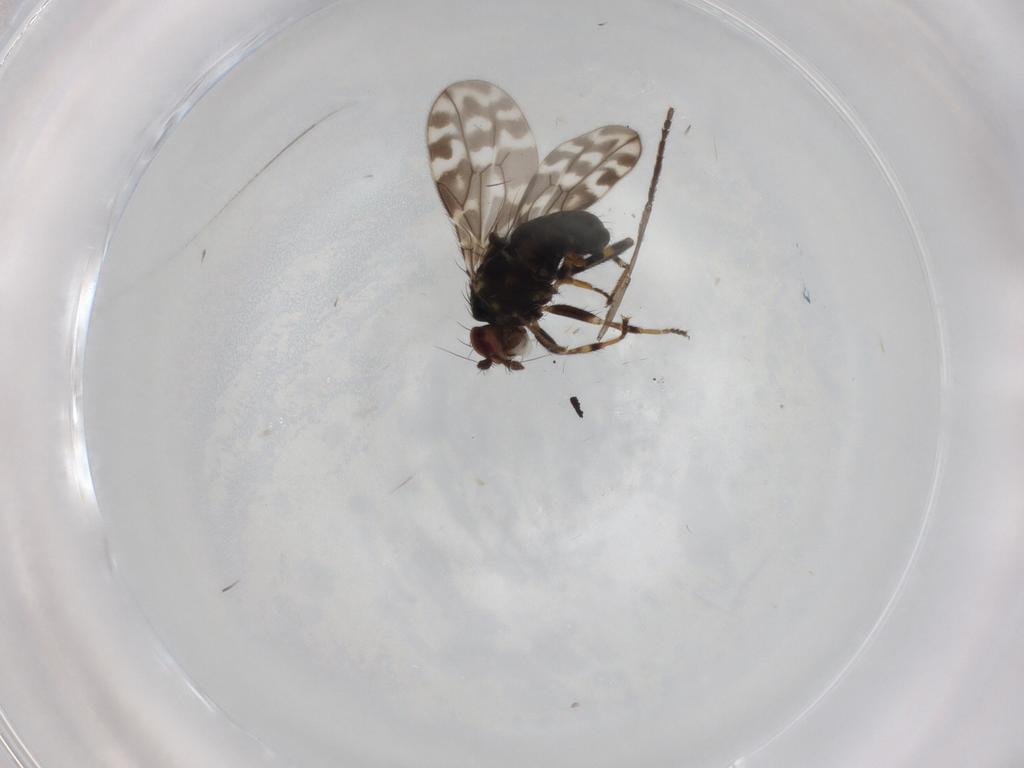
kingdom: Animalia
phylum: Arthropoda
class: Insecta
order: Diptera
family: Sphaeroceridae
